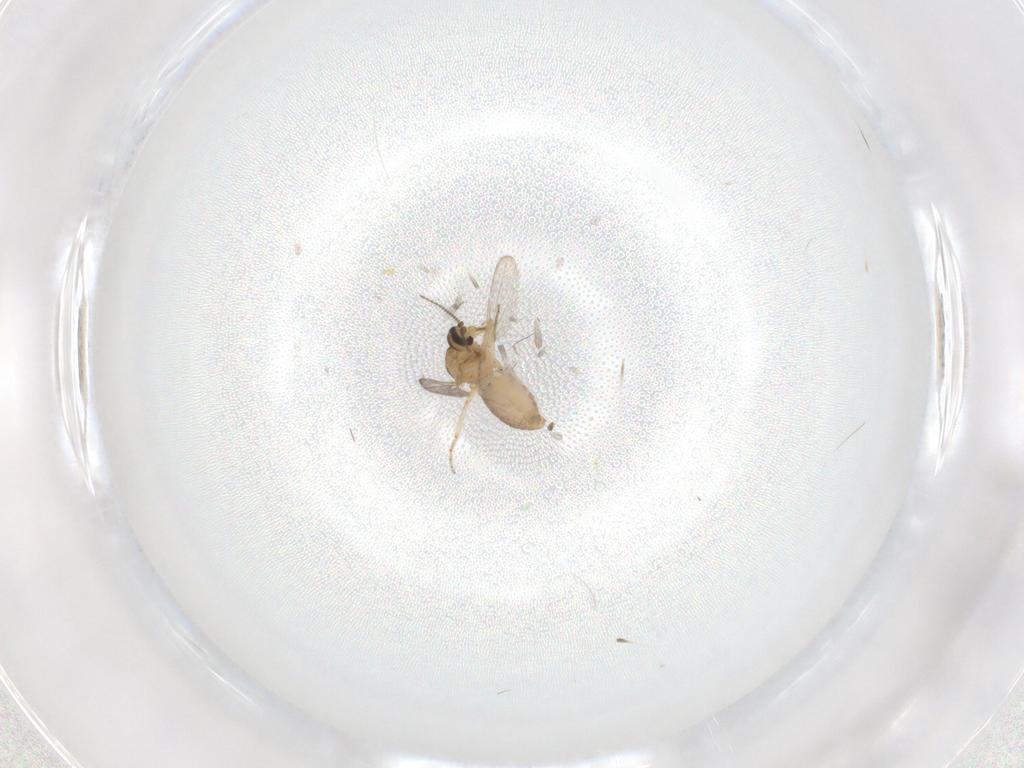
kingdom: Animalia
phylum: Arthropoda
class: Insecta
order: Diptera
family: Ceratopogonidae
